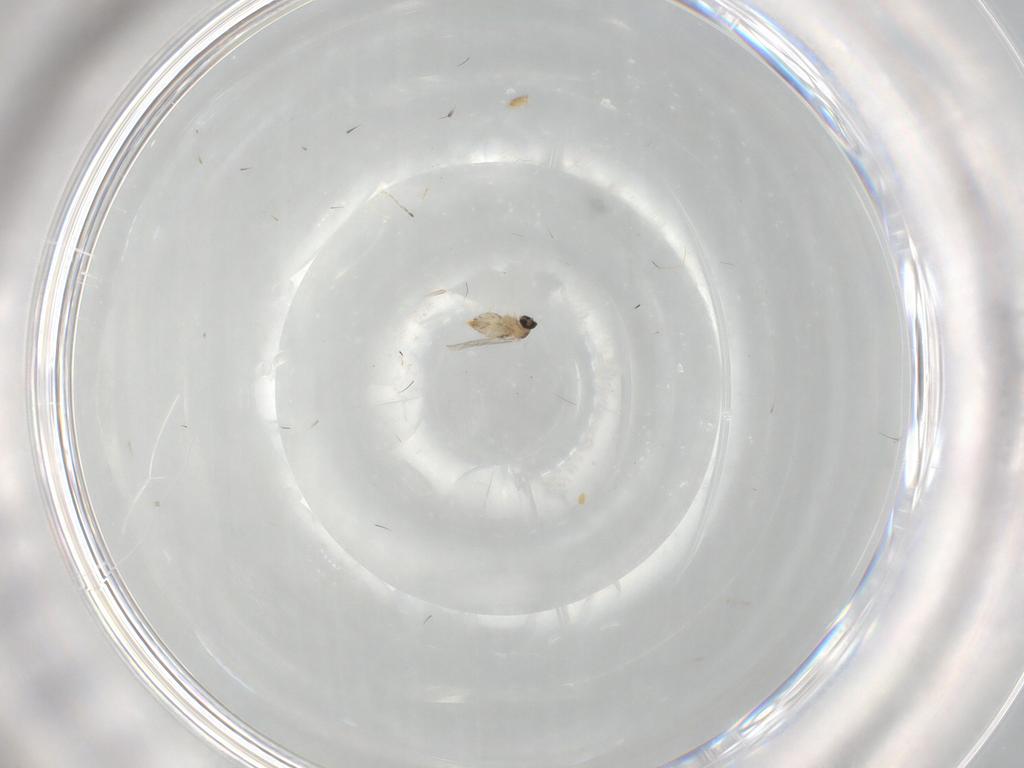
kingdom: Animalia
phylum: Arthropoda
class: Insecta
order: Diptera
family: Cecidomyiidae
